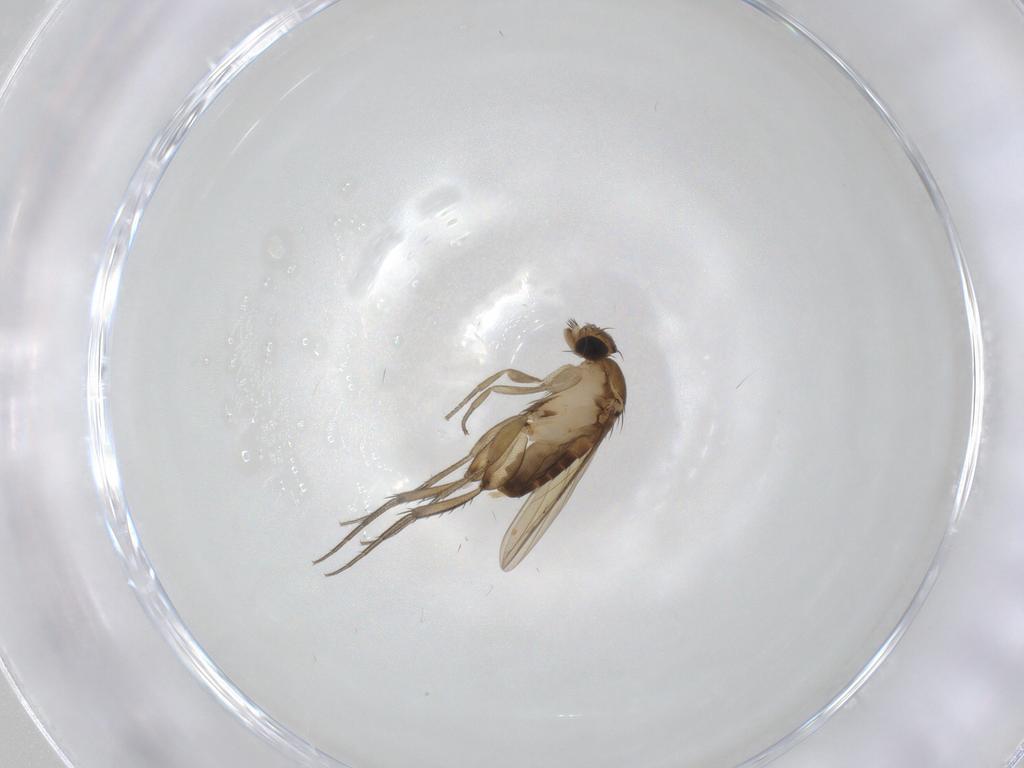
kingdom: Animalia
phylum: Arthropoda
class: Insecta
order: Diptera
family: Phoridae
